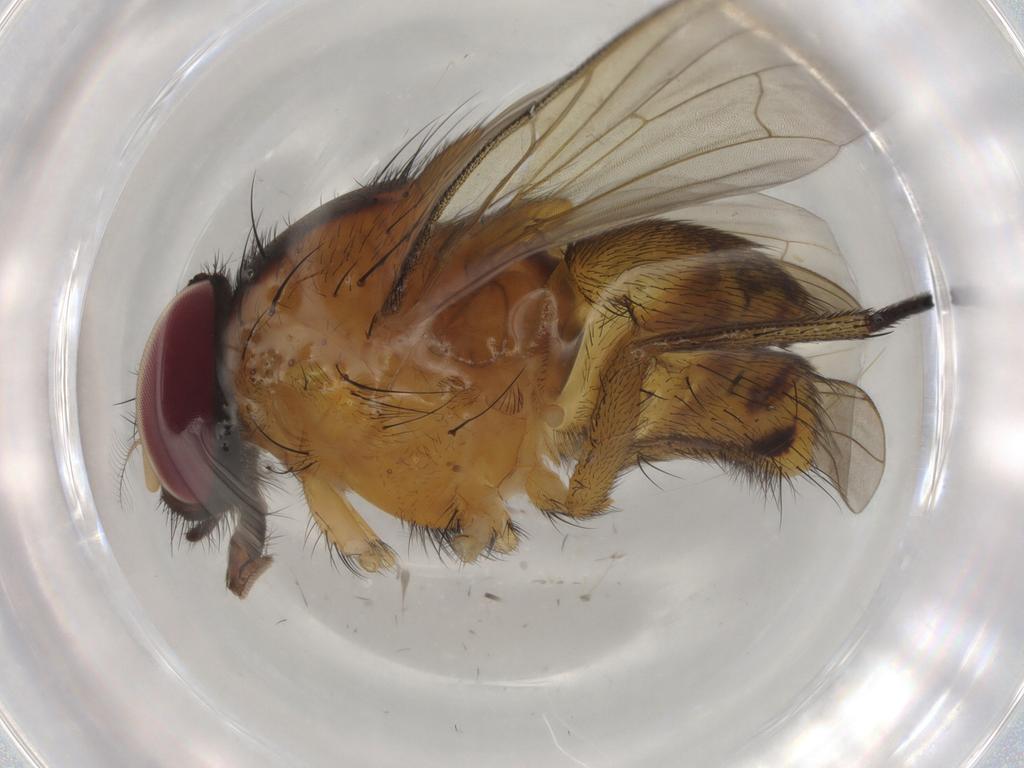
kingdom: Animalia
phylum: Arthropoda
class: Insecta
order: Diptera
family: Cecidomyiidae
